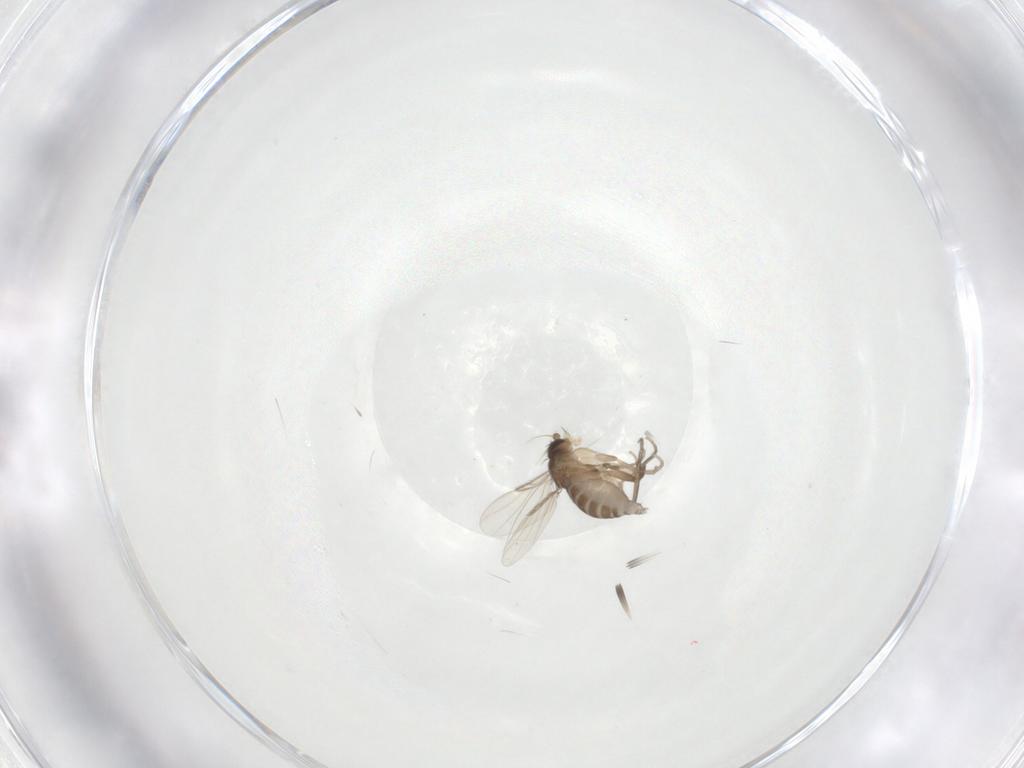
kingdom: Animalia
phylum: Arthropoda
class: Insecta
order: Diptera
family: Phoridae
